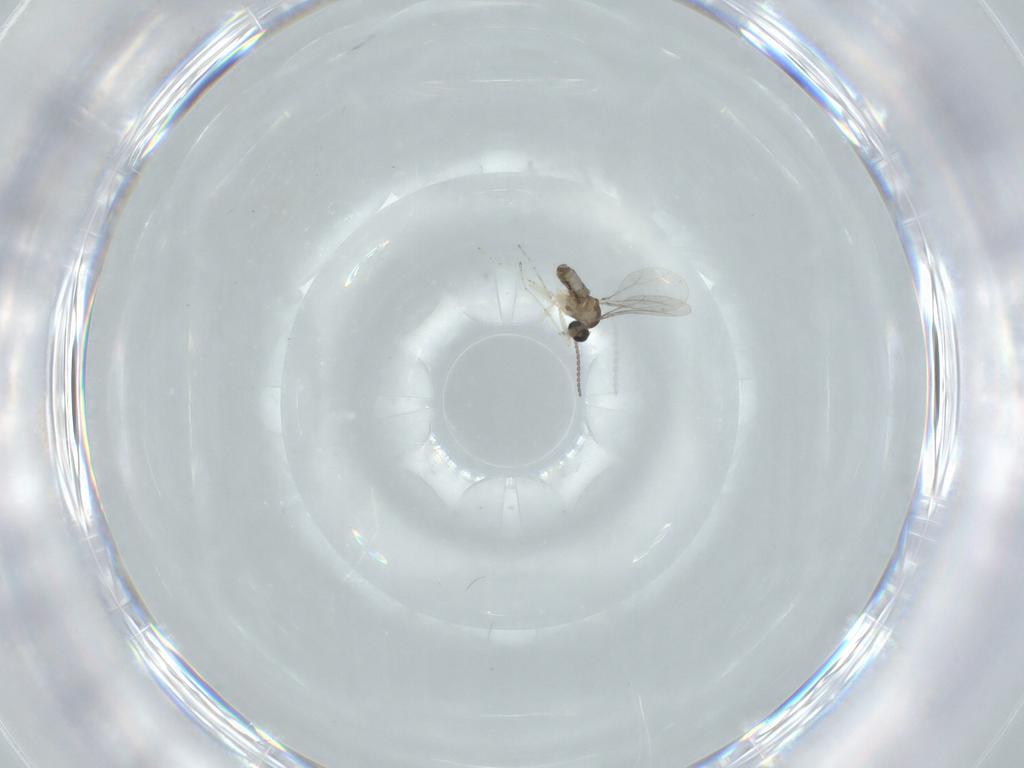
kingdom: Animalia
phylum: Arthropoda
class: Insecta
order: Diptera
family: Cecidomyiidae
